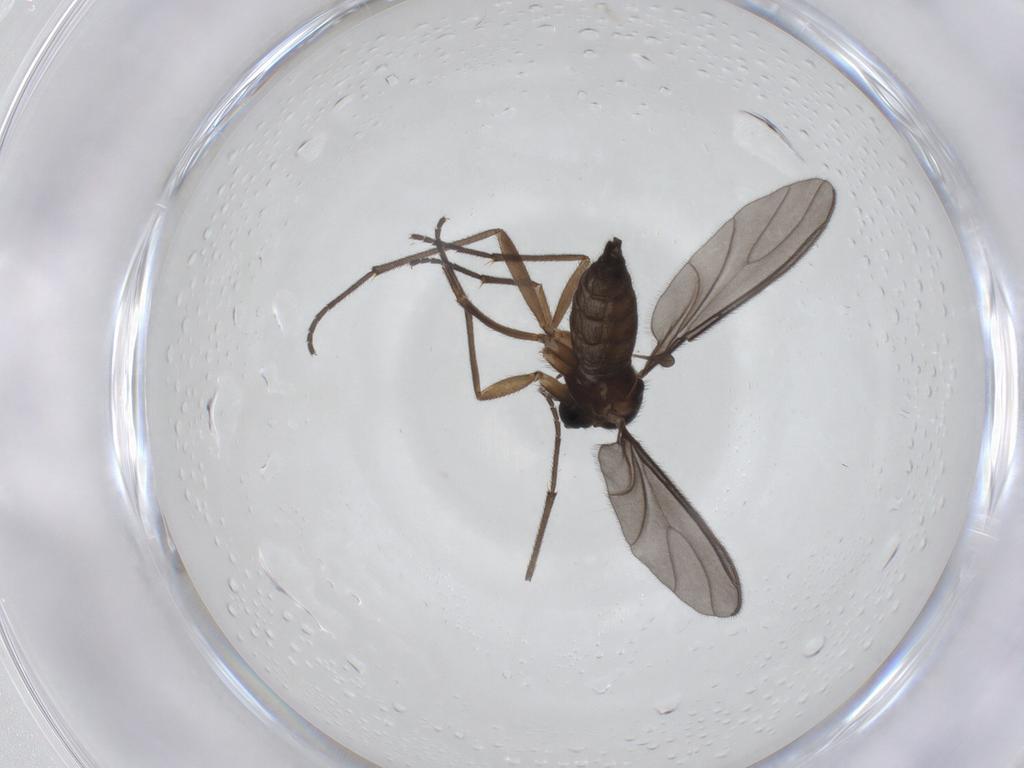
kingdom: Animalia
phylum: Arthropoda
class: Insecta
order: Diptera
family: Sciaridae
